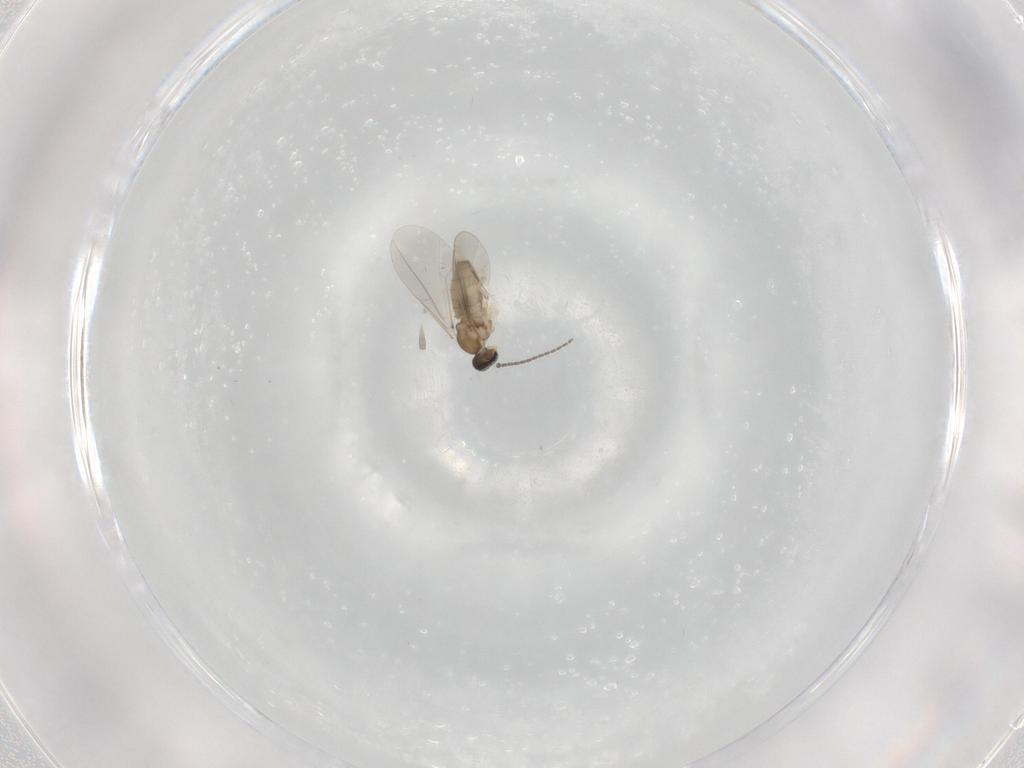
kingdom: Animalia
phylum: Arthropoda
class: Insecta
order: Diptera
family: Cecidomyiidae
